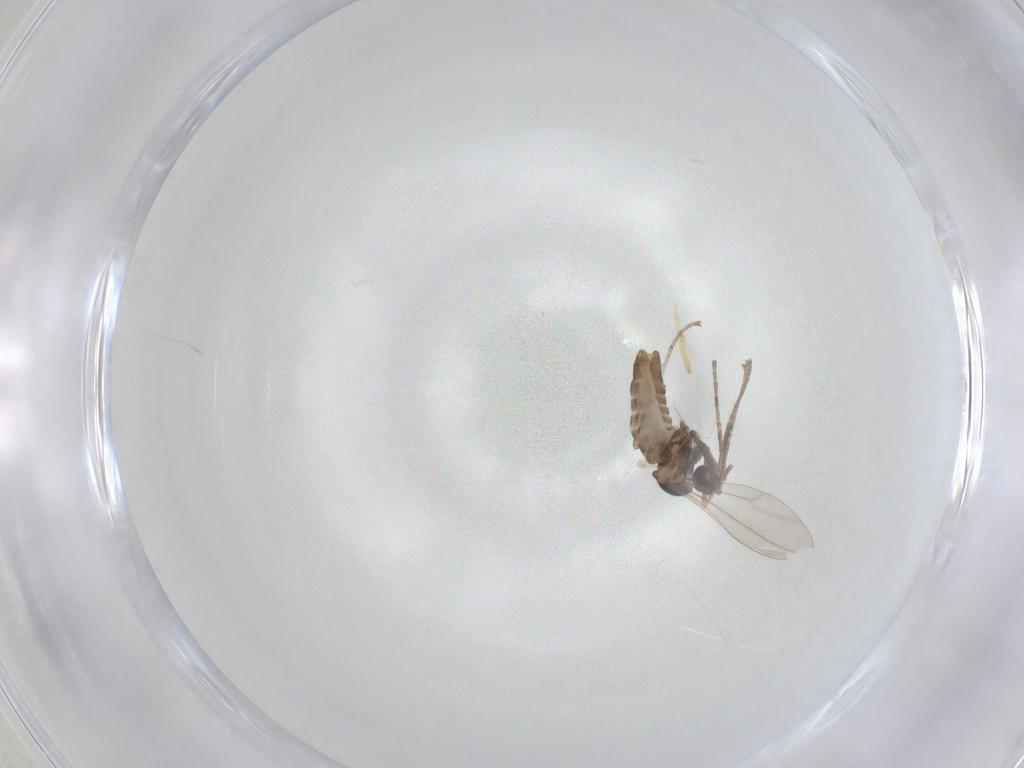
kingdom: Animalia
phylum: Arthropoda
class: Insecta
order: Diptera
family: Cecidomyiidae
